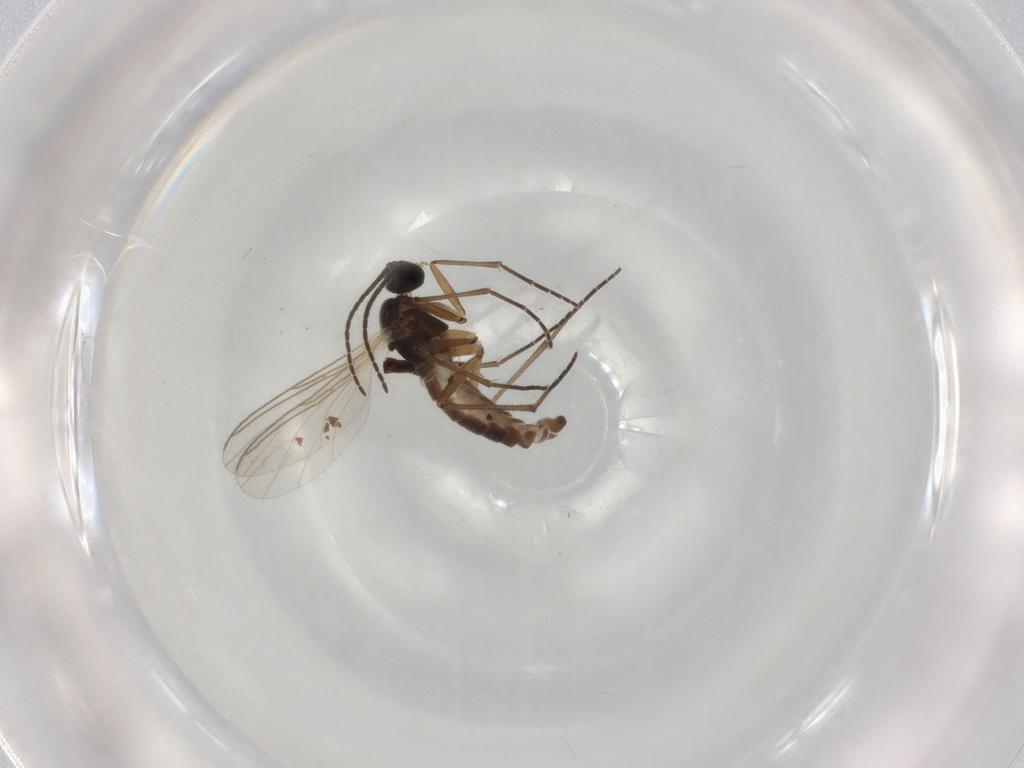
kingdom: Animalia
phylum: Arthropoda
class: Insecta
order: Diptera
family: Culicidae
